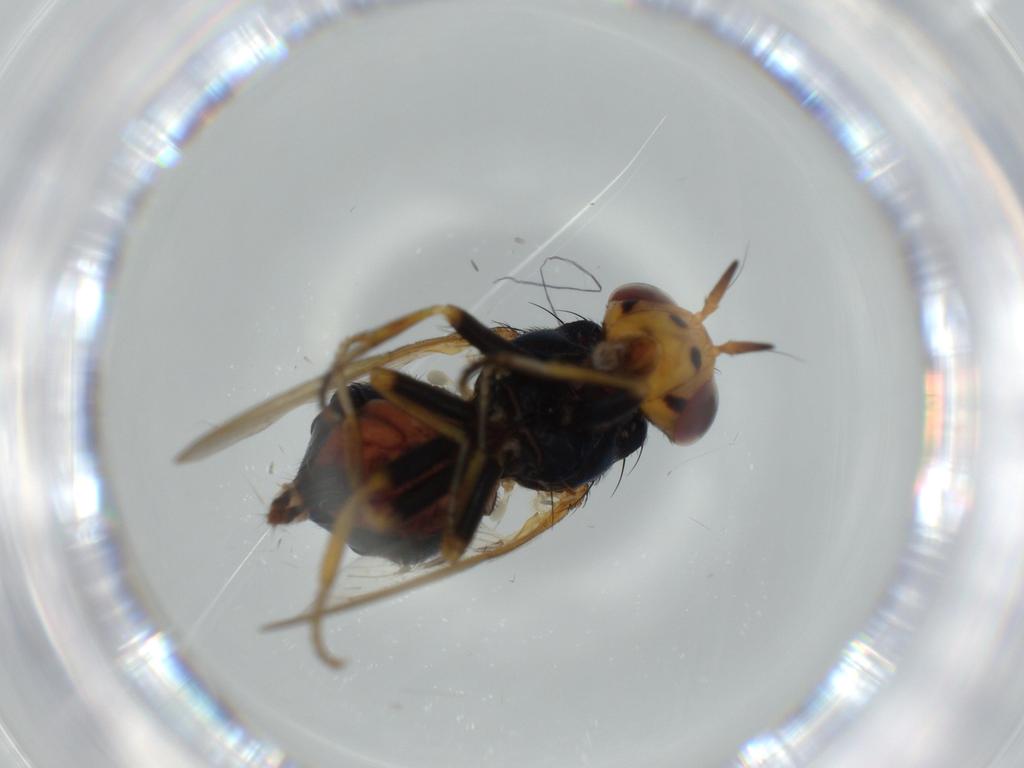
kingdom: Animalia
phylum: Arthropoda
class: Insecta
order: Diptera
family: Cecidomyiidae
